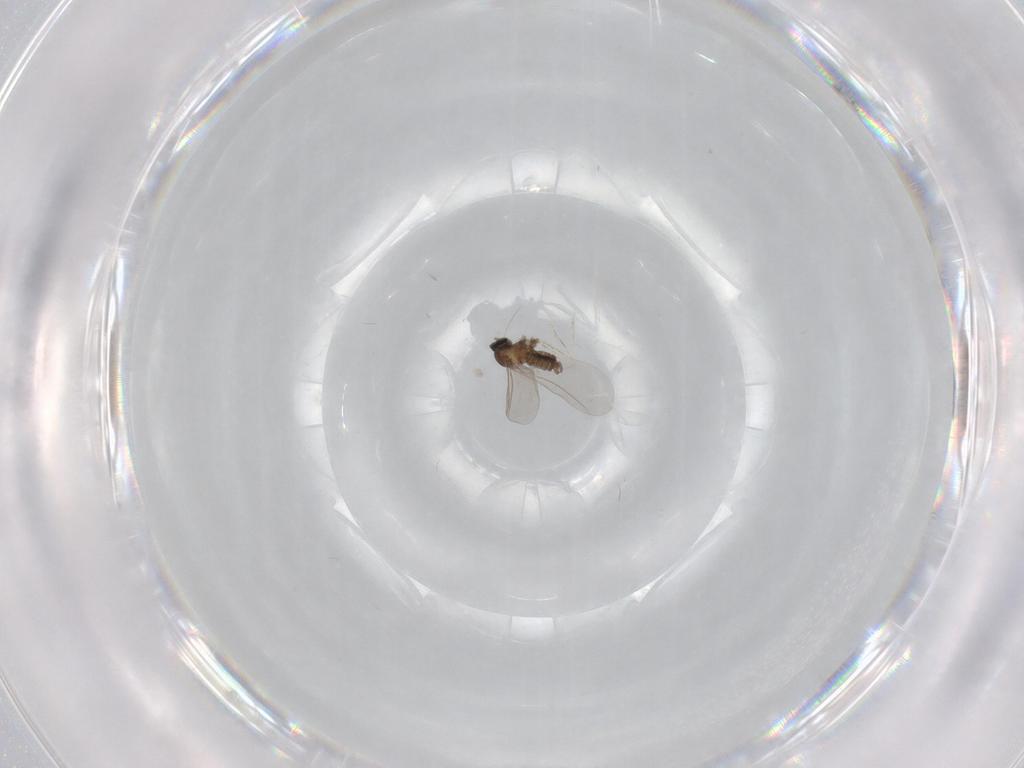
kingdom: Animalia
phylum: Arthropoda
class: Insecta
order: Diptera
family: Cecidomyiidae
